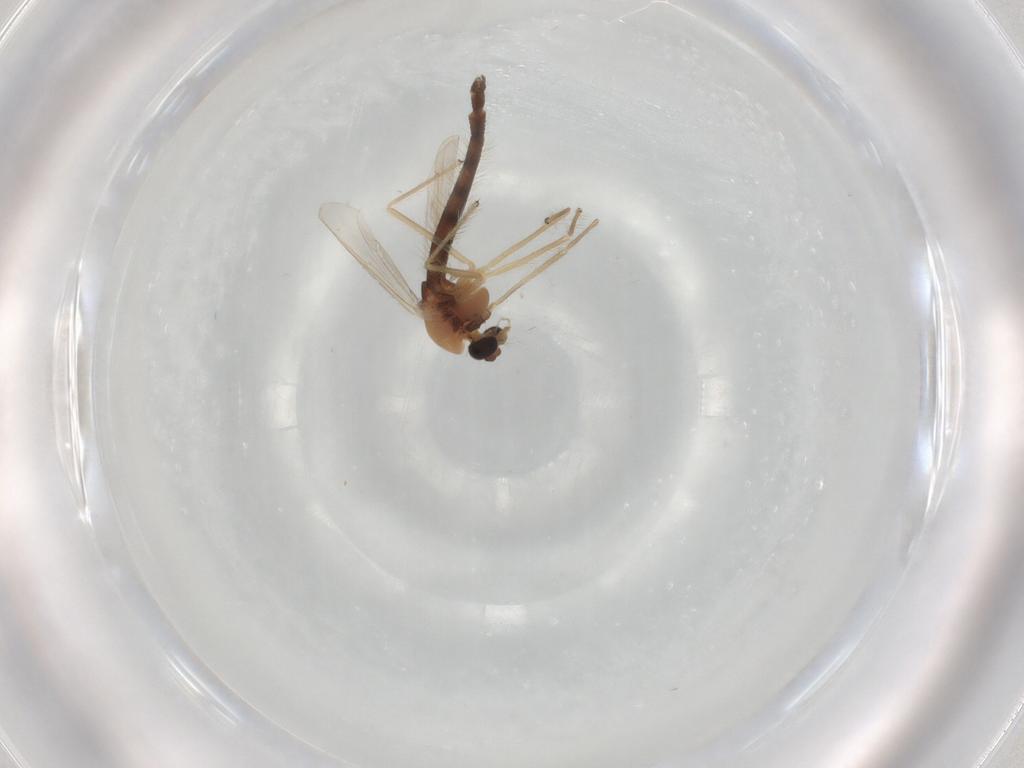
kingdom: Animalia
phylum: Arthropoda
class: Insecta
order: Diptera
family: Chironomidae
